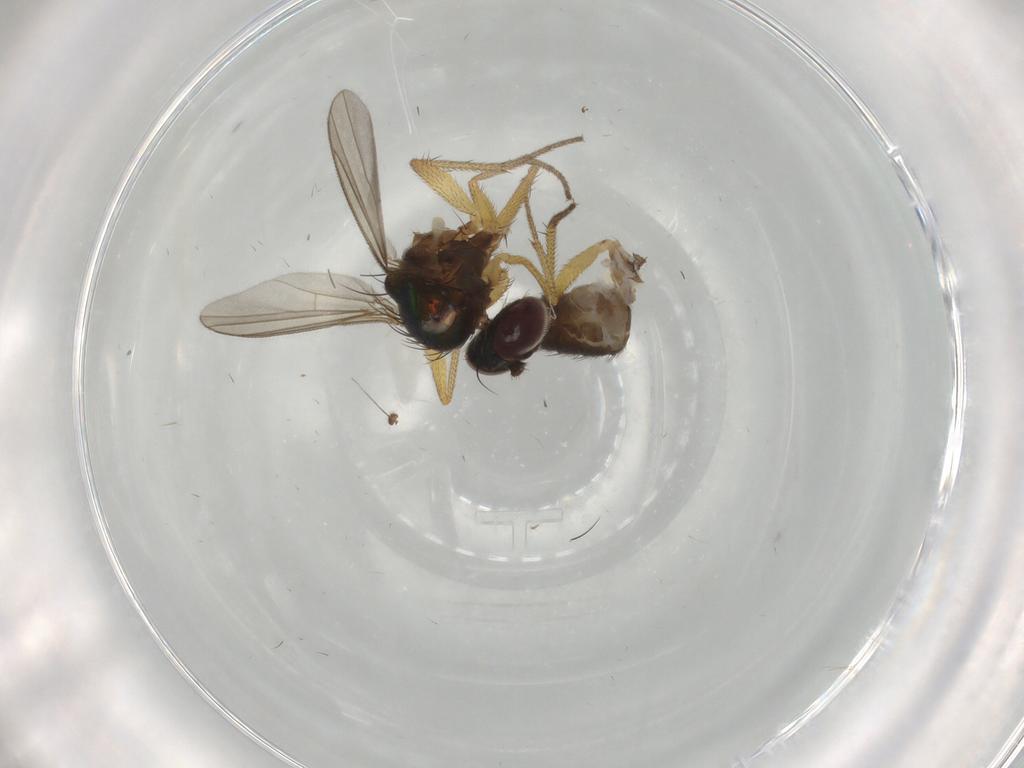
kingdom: Animalia
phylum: Arthropoda
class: Insecta
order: Diptera
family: Dolichopodidae
